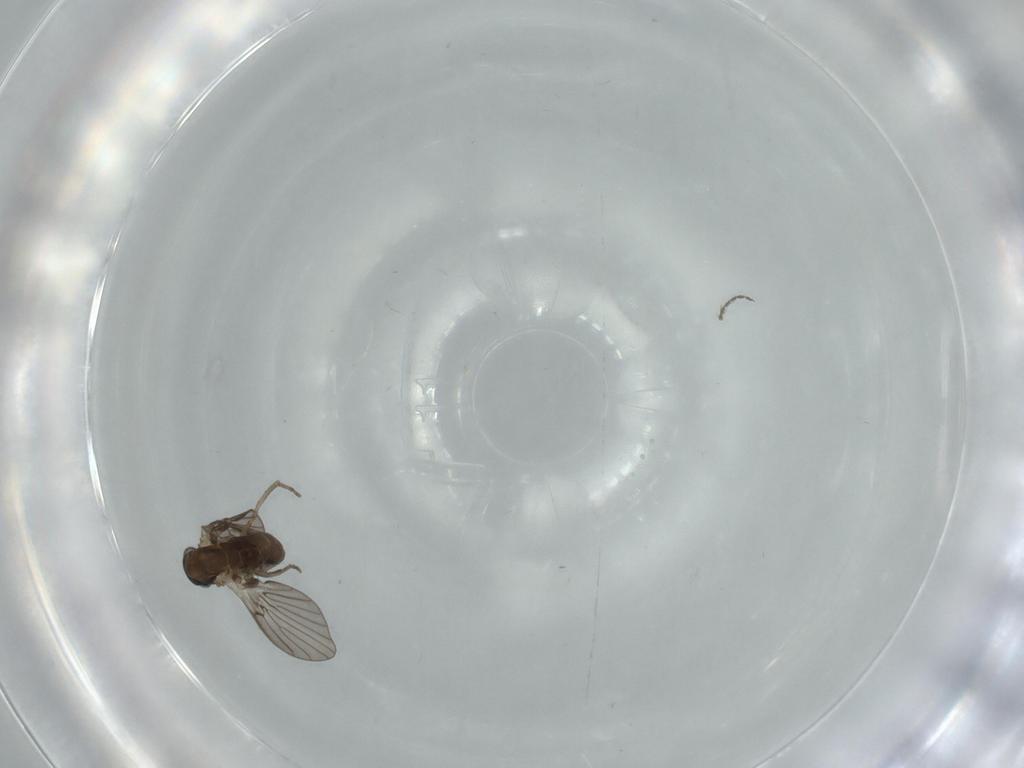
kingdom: Animalia
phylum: Arthropoda
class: Insecta
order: Diptera
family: Psychodidae
